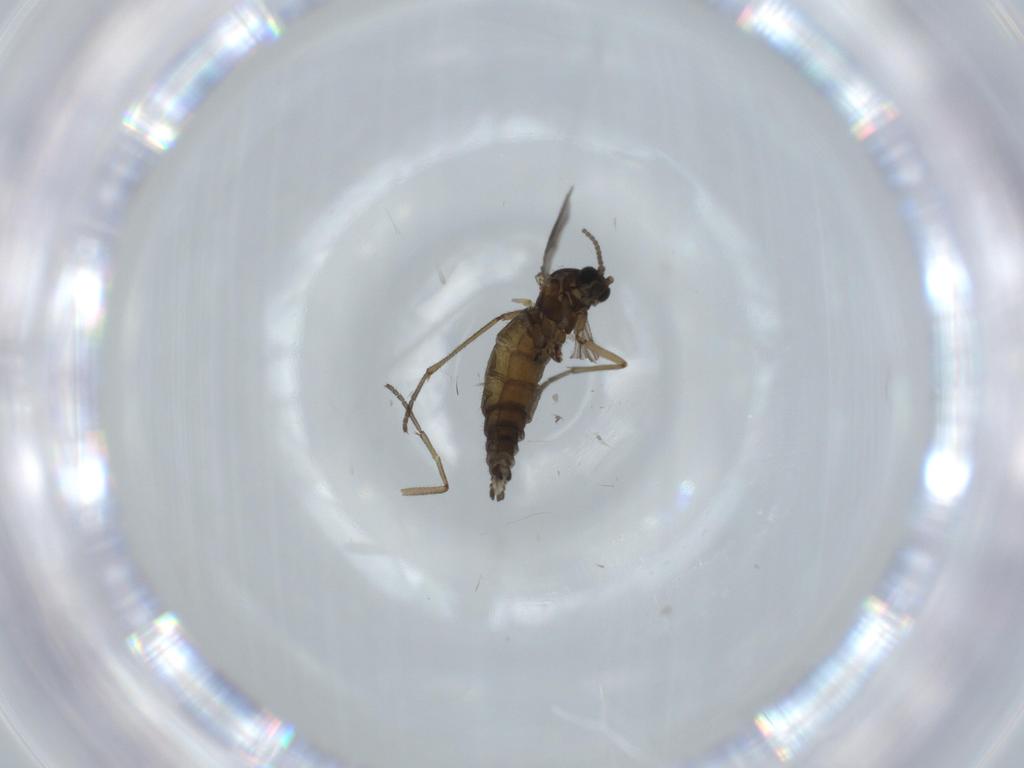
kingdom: Animalia
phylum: Arthropoda
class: Insecta
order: Diptera
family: Sciaridae
